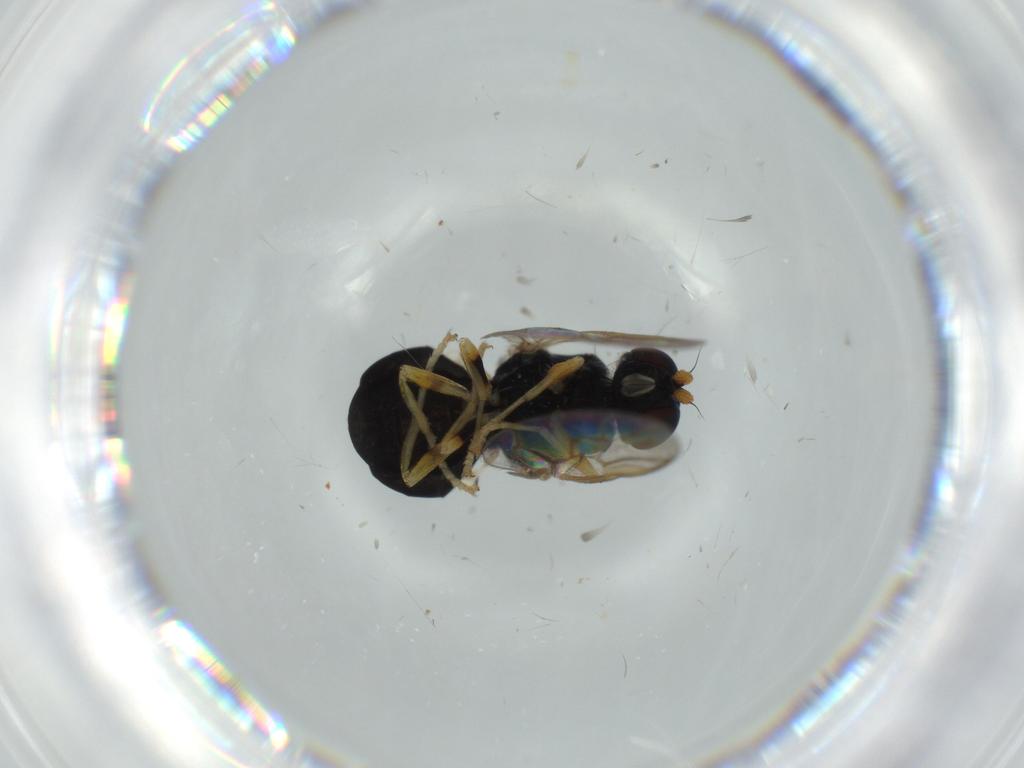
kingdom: Animalia
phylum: Arthropoda
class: Insecta
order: Diptera
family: Stratiomyidae
